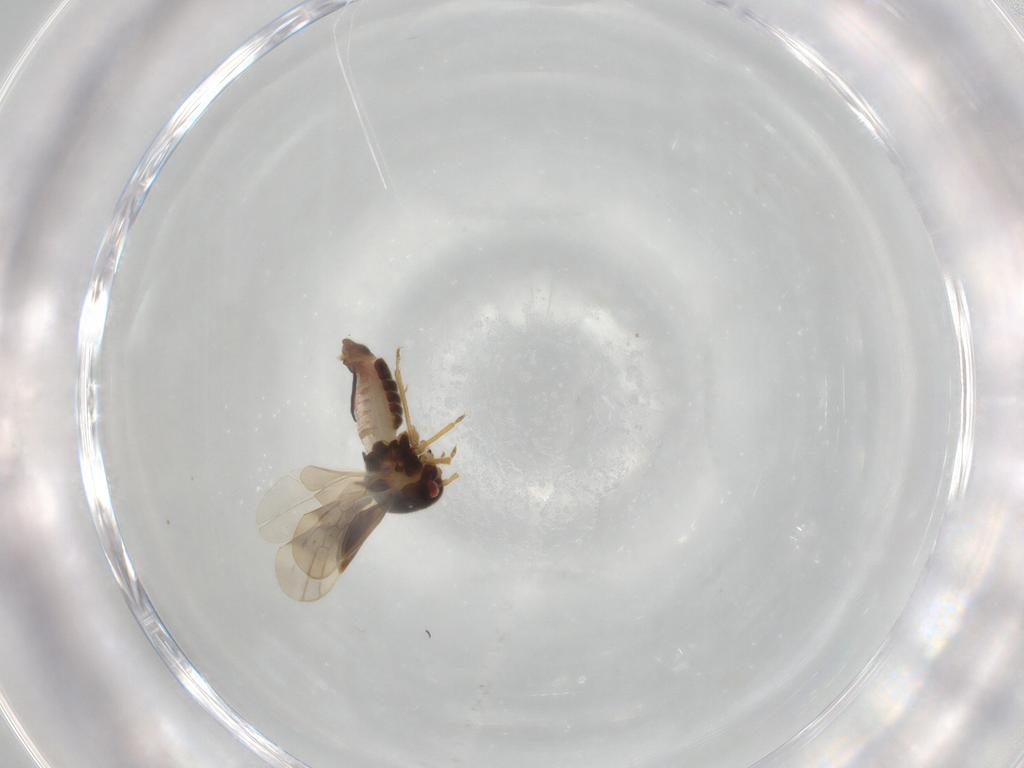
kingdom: Animalia
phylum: Arthropoda
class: Insecta
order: Hemiptera
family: Schizopteridae
